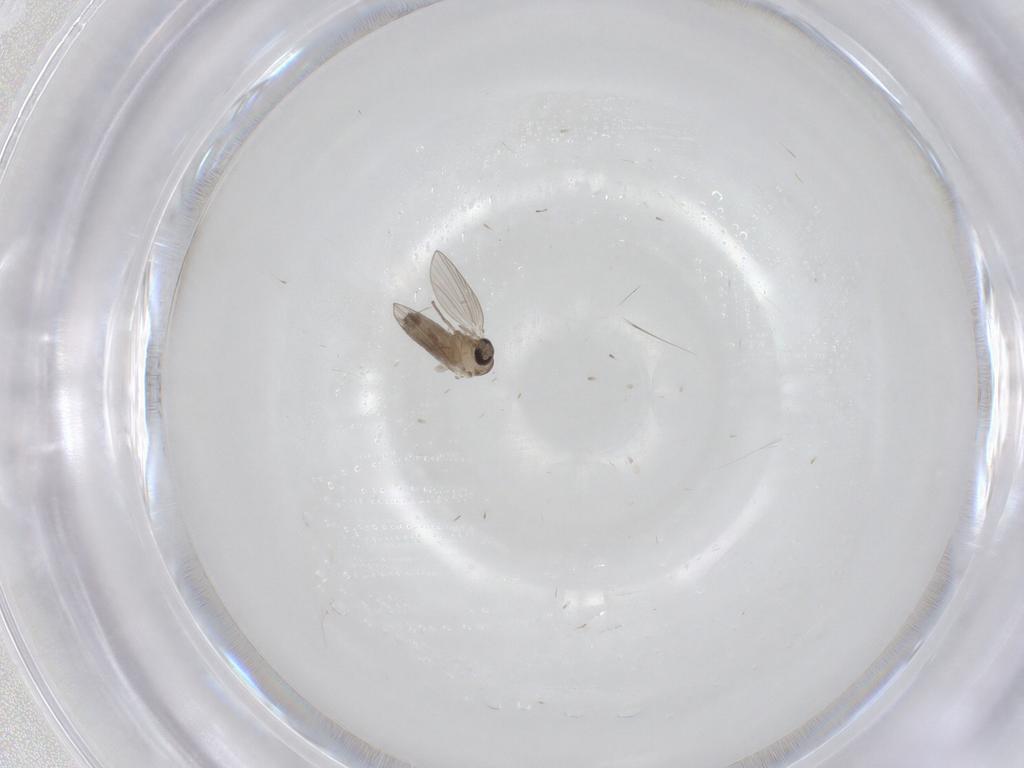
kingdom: Animalia
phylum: Arthropoda
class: Insecta
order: Diptera
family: Psychodidae
